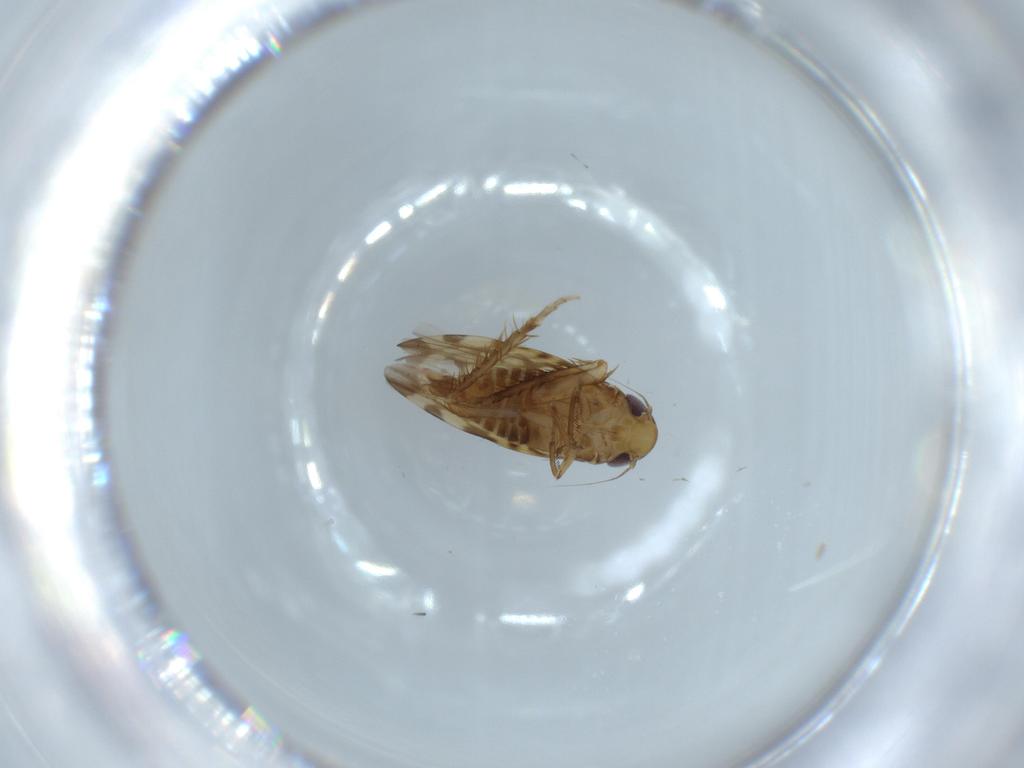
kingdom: Animalia
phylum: Arthropoda
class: Insecta
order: Hemiptera
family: Cicadellidae
